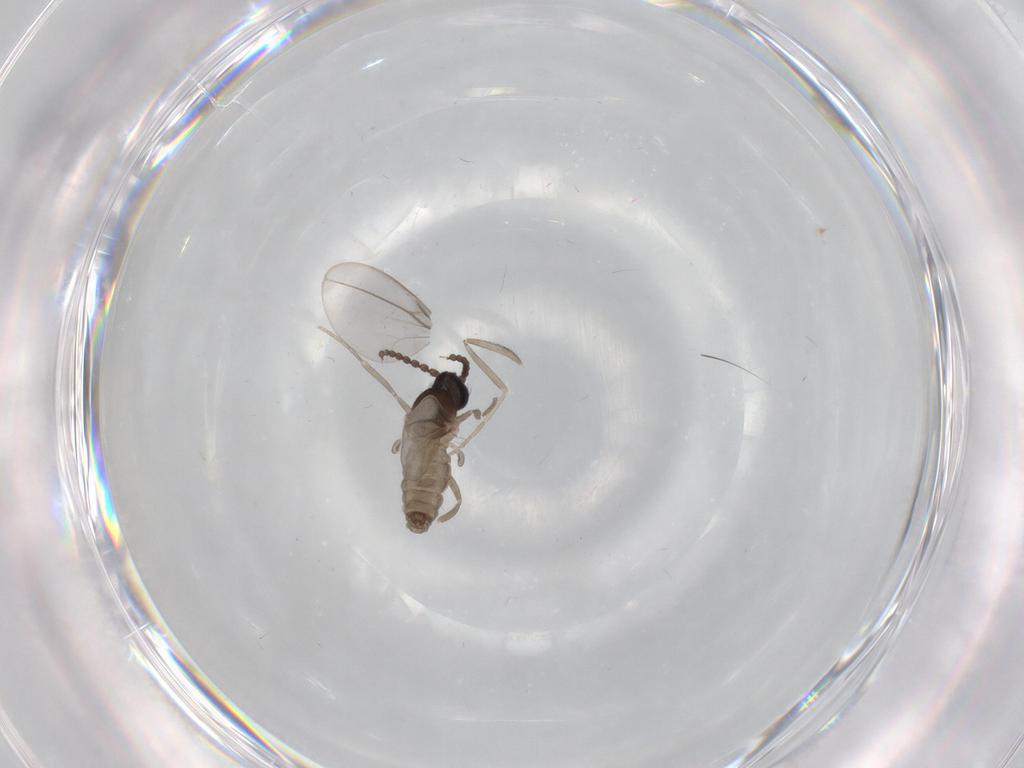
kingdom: Animalia
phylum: Arthropoda
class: Insecta
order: Diptera
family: Cecidomyiidae
